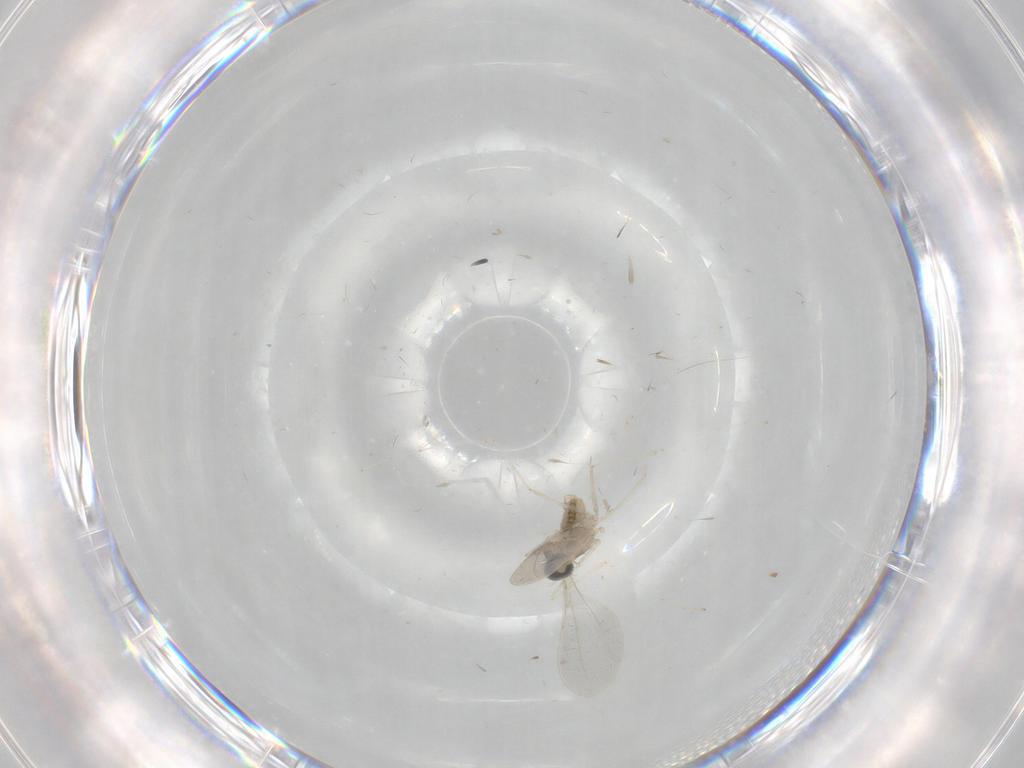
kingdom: Animalia
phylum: Arthropoda
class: Insecta
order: Diptera
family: Cecidomyiidae
